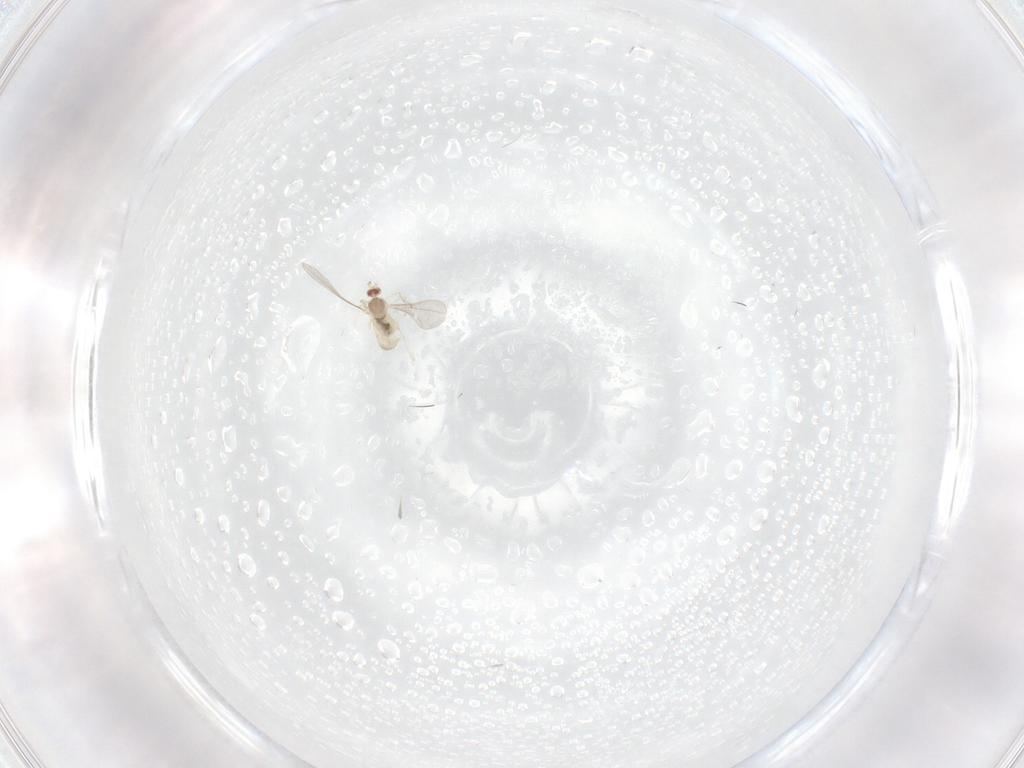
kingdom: Animalia
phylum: Arthropoda
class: Insecta
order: Diptera
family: Cecidomyiidae
